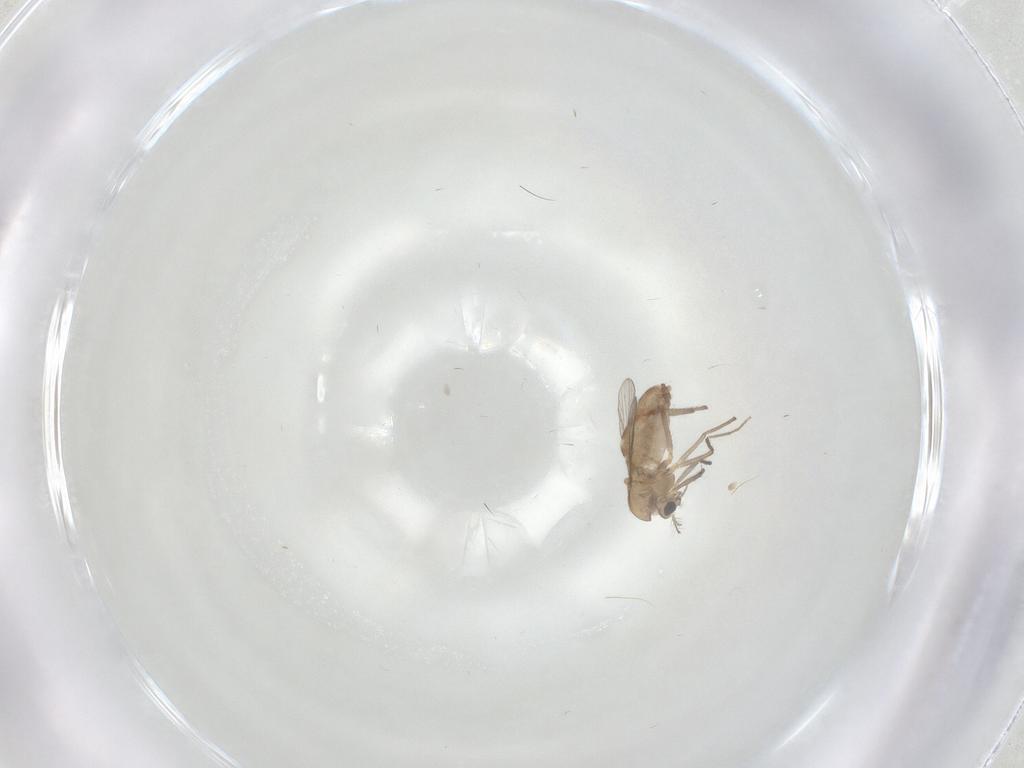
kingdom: Animalia
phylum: Arthropoda
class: Insecta
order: Diptera
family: Chironomidae
